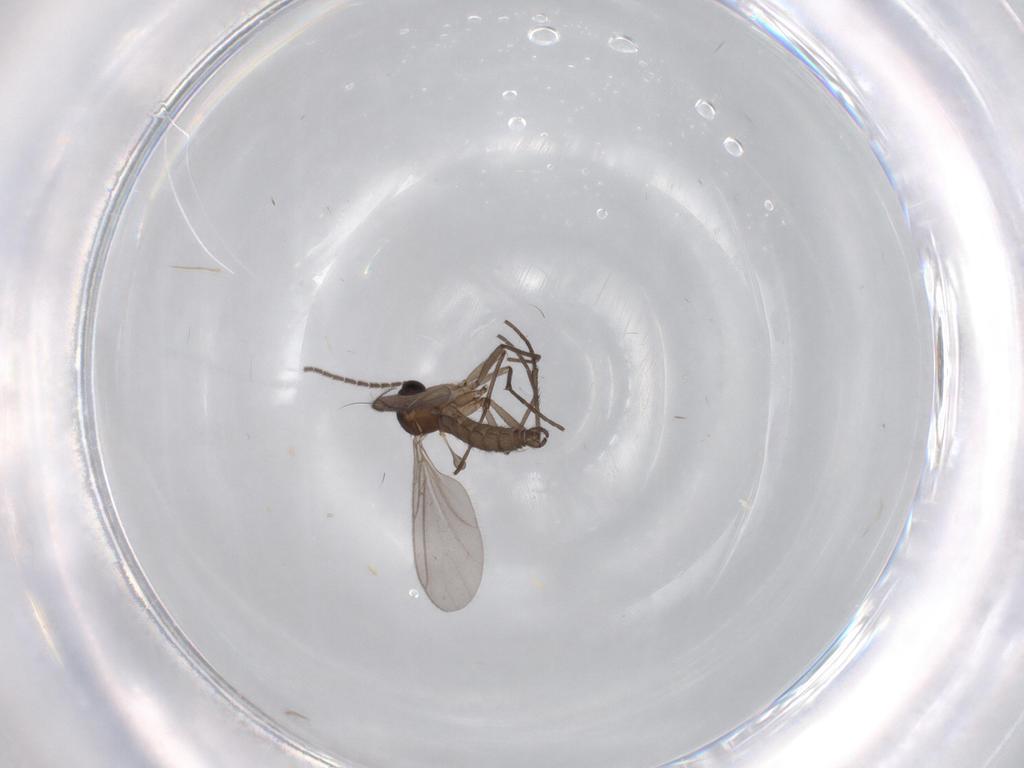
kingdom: Animalia
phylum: Arthropoda
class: Insecta
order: Diptera
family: Sciaridae
